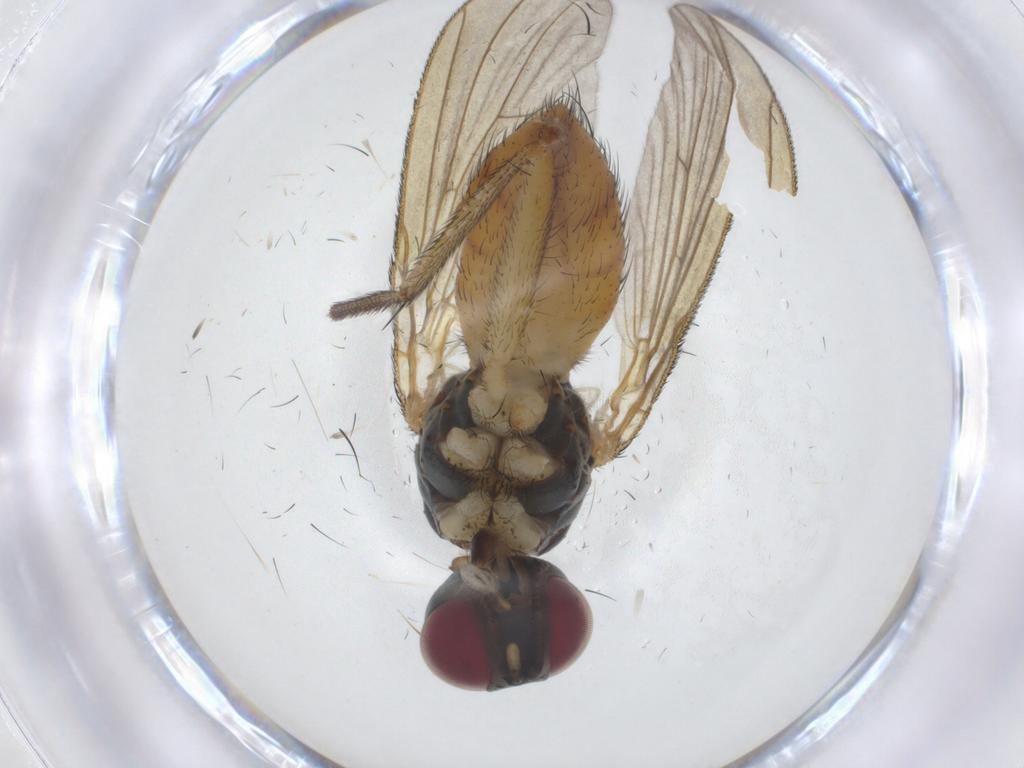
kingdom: Animalia
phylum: Arthropoda
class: Insecta
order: Diptera
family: Muscidae
